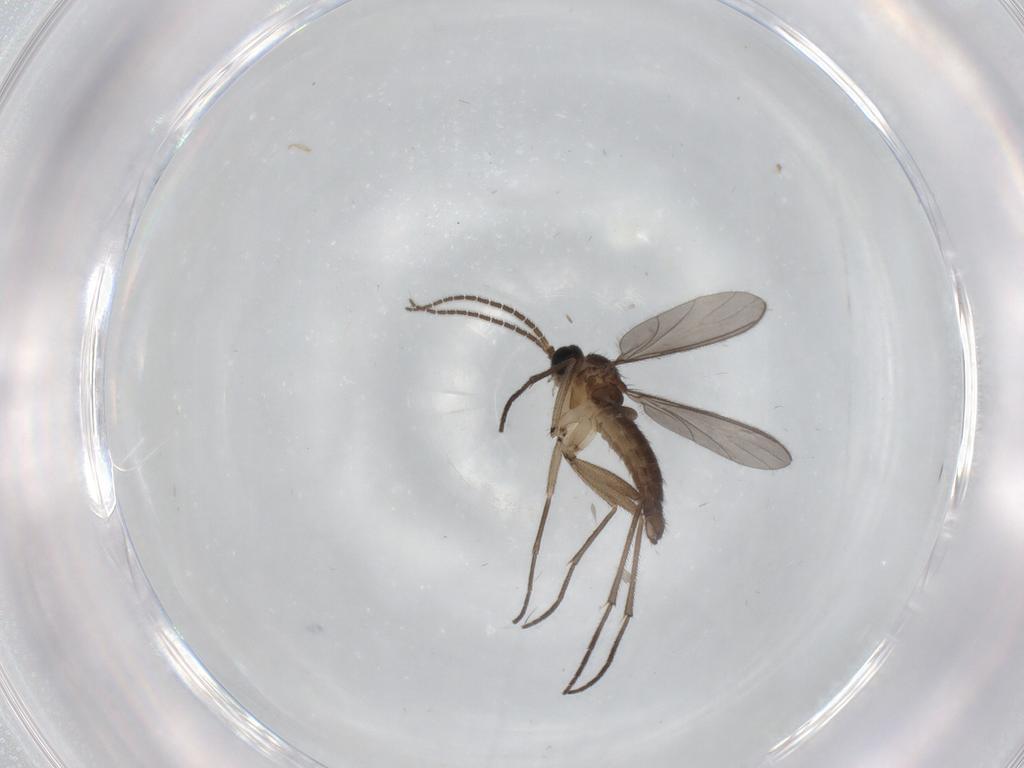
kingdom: Animalia
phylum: Arthropoda
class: Insecta
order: Diptera
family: Sciaridae
